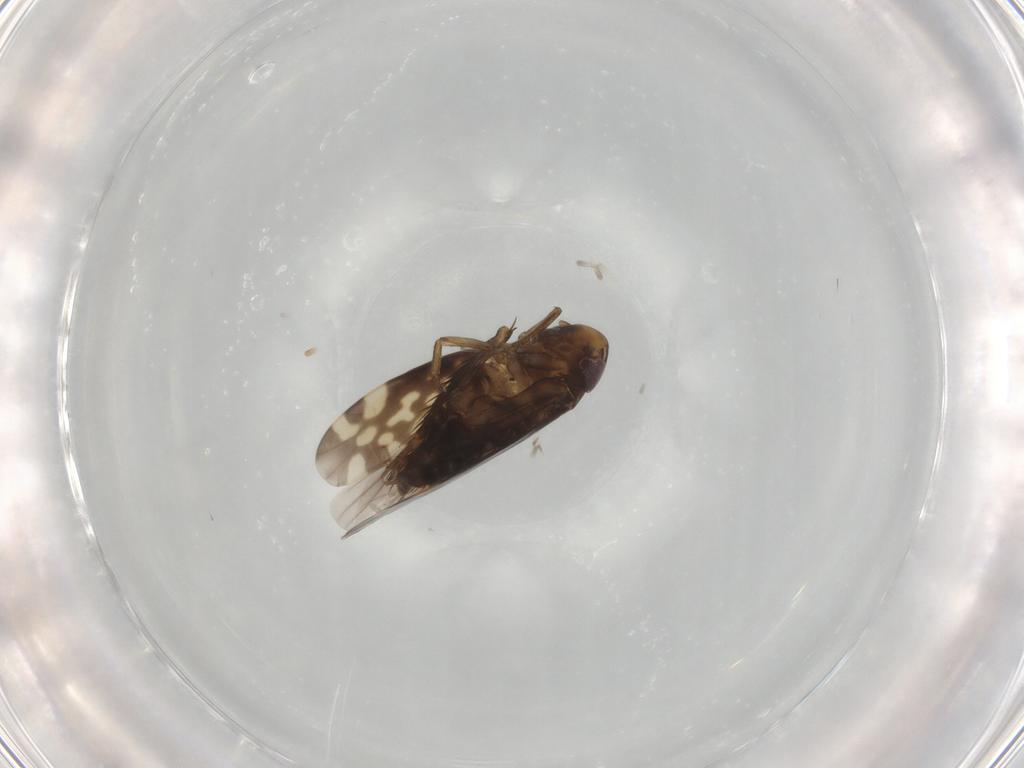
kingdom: Animalia
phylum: Arthropoda
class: Insecta
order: Hemiptera
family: Cicadellidae
